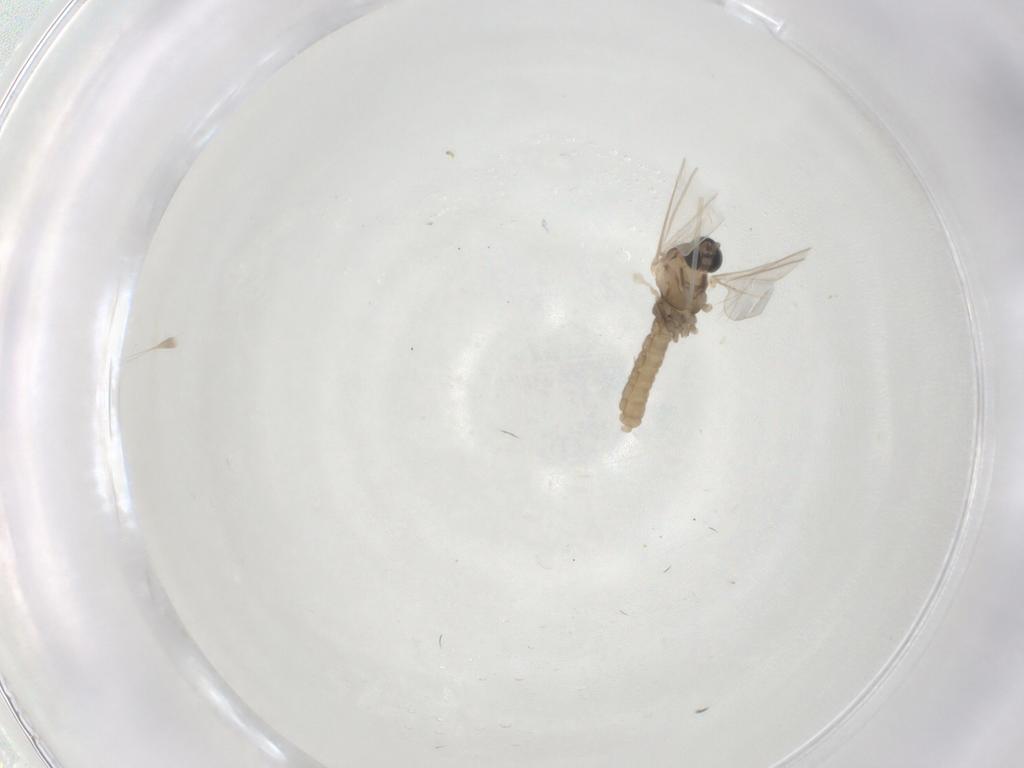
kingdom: Animalia
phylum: Arthropoda
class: Insecta
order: Diptera
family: Cecidomyiidae
